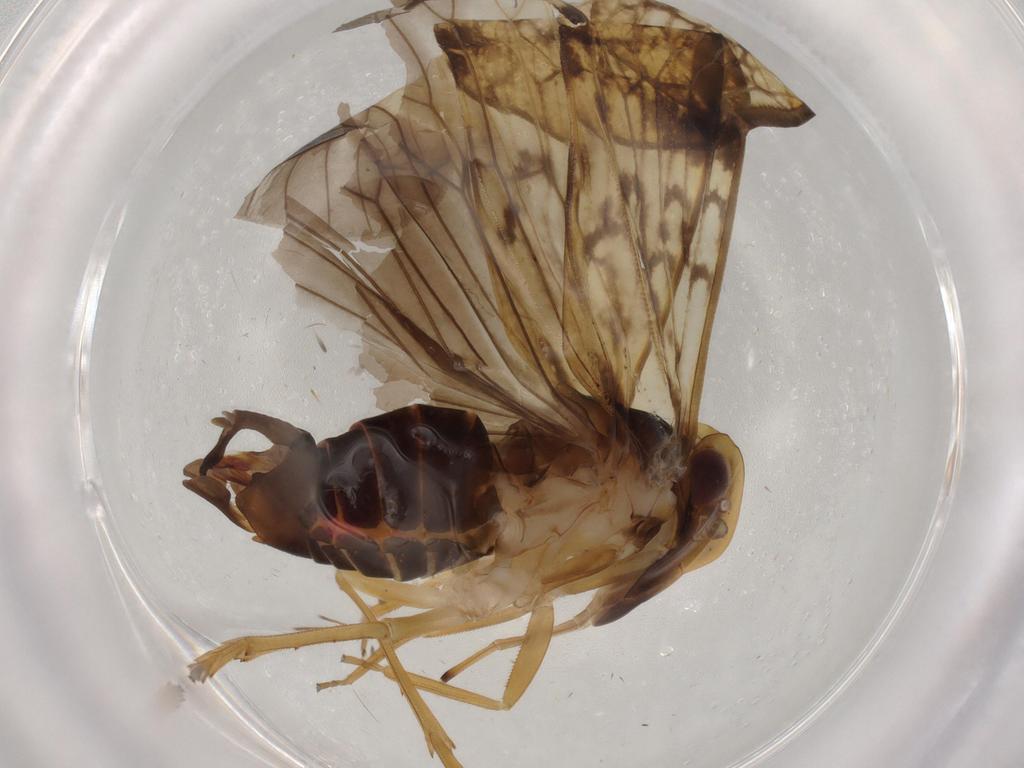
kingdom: Animalia
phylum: Arthropoda
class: Insecta
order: Hemiptera
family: Cixiidae
